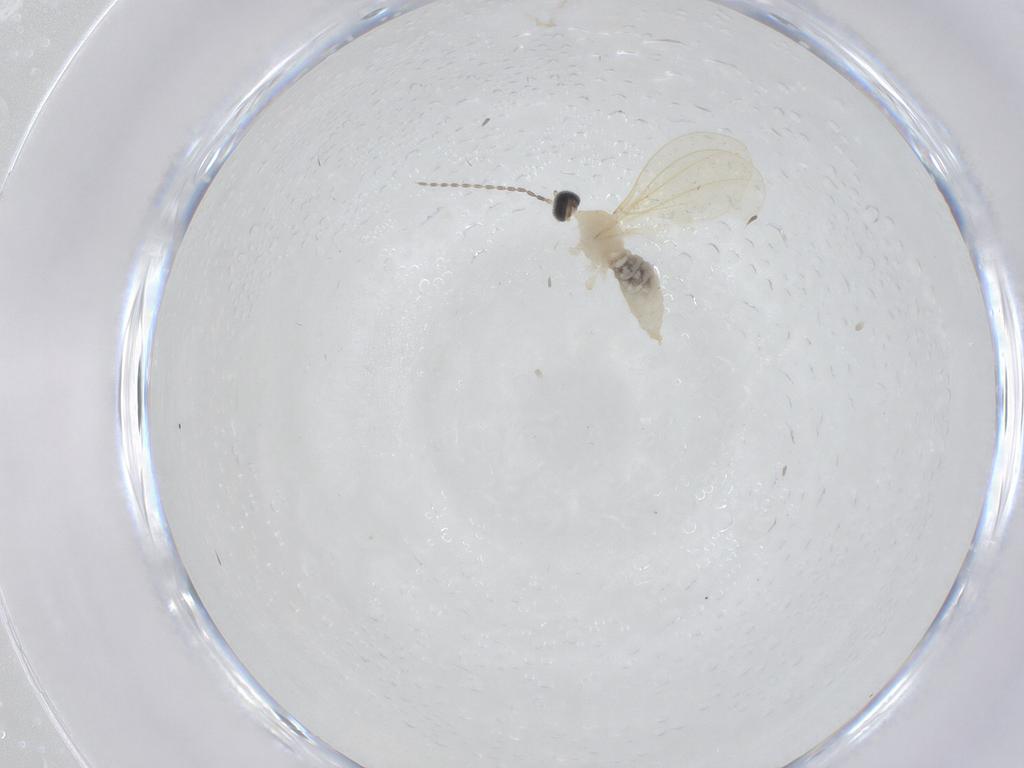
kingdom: Animalia
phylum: Arthropoda
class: Insecta
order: Diptera
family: Cecidomyiidae
